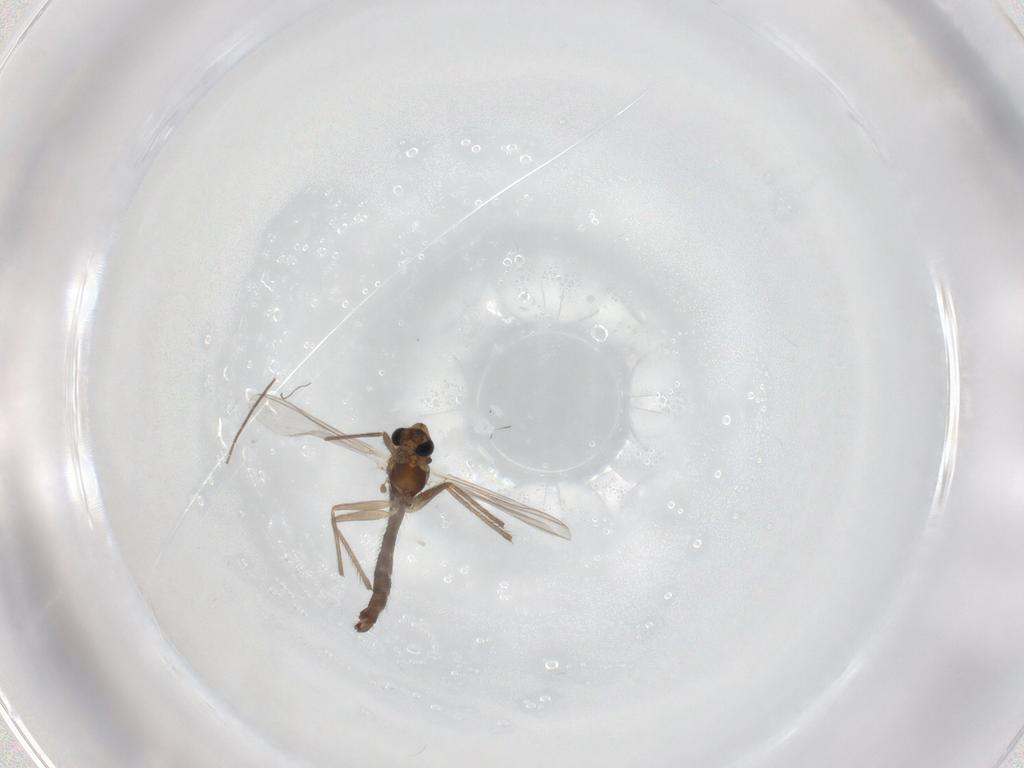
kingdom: Animalia
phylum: Arthropoda
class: Insecta
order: Diptera
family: Chironomidae
